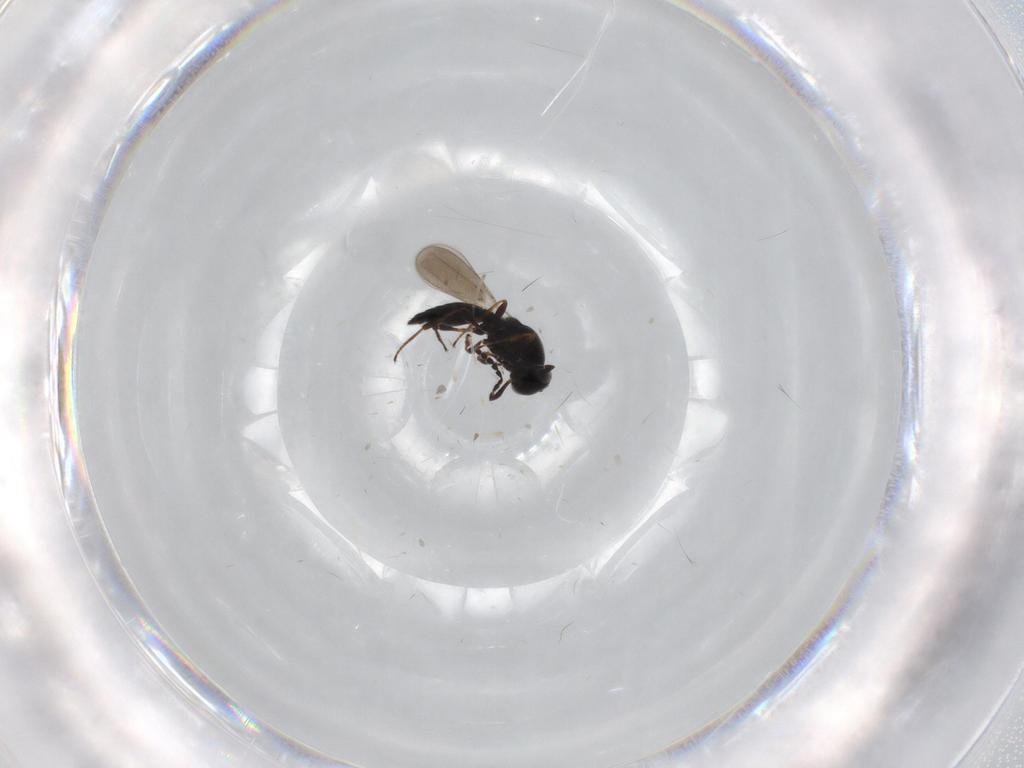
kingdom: Animalia
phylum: Arthropoda
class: Insecta
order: Hymenoptera
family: Platygastridae
